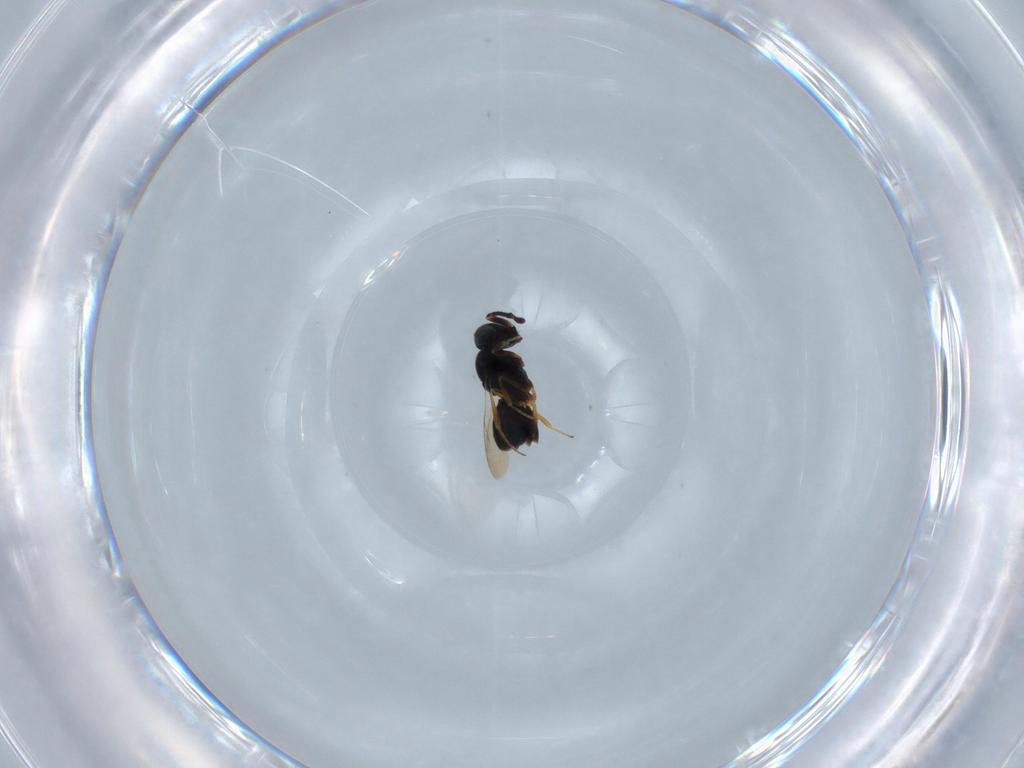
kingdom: Animalia
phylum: Arthropoda
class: Insecta
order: Hymenoptera
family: Scelionidae
